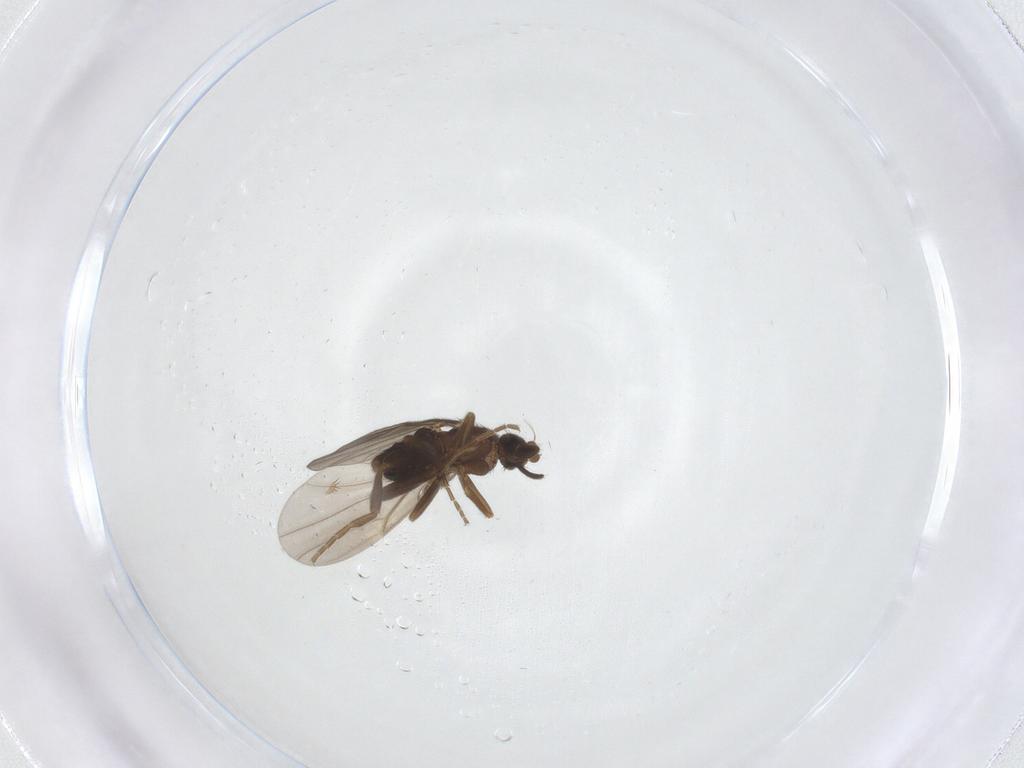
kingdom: Animalia
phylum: Arthropoda
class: Insecta
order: Diptera
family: Phoridae
